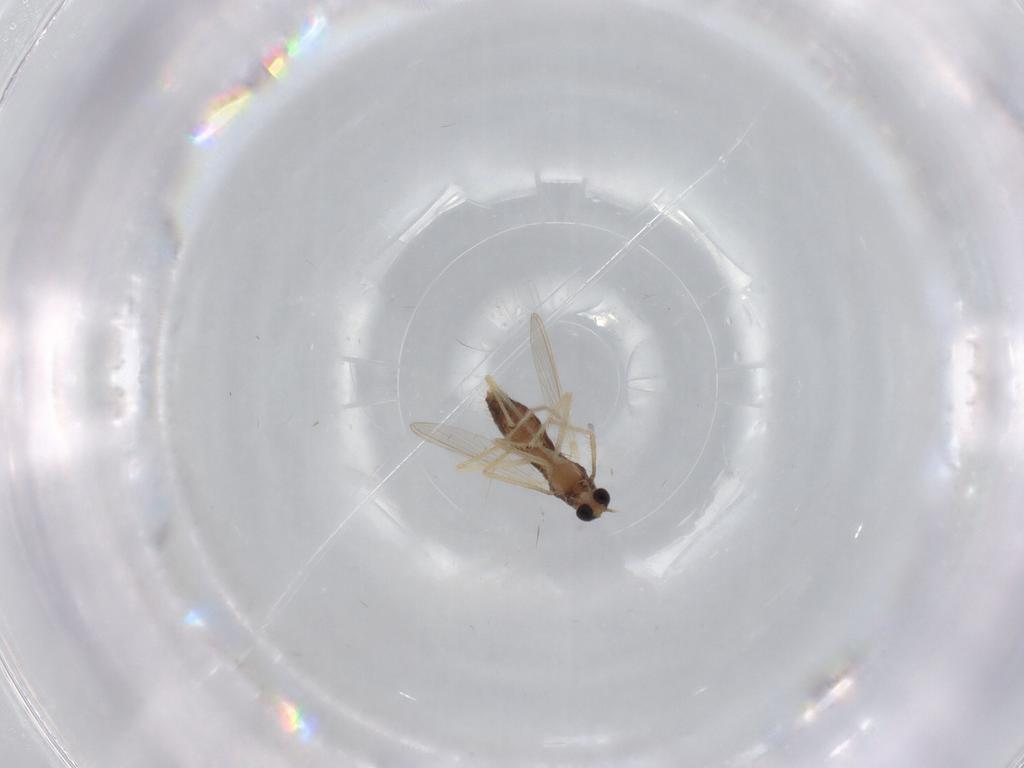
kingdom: Animalia
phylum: Arthropoda
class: Insecta
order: Diptera
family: Chironomidae
